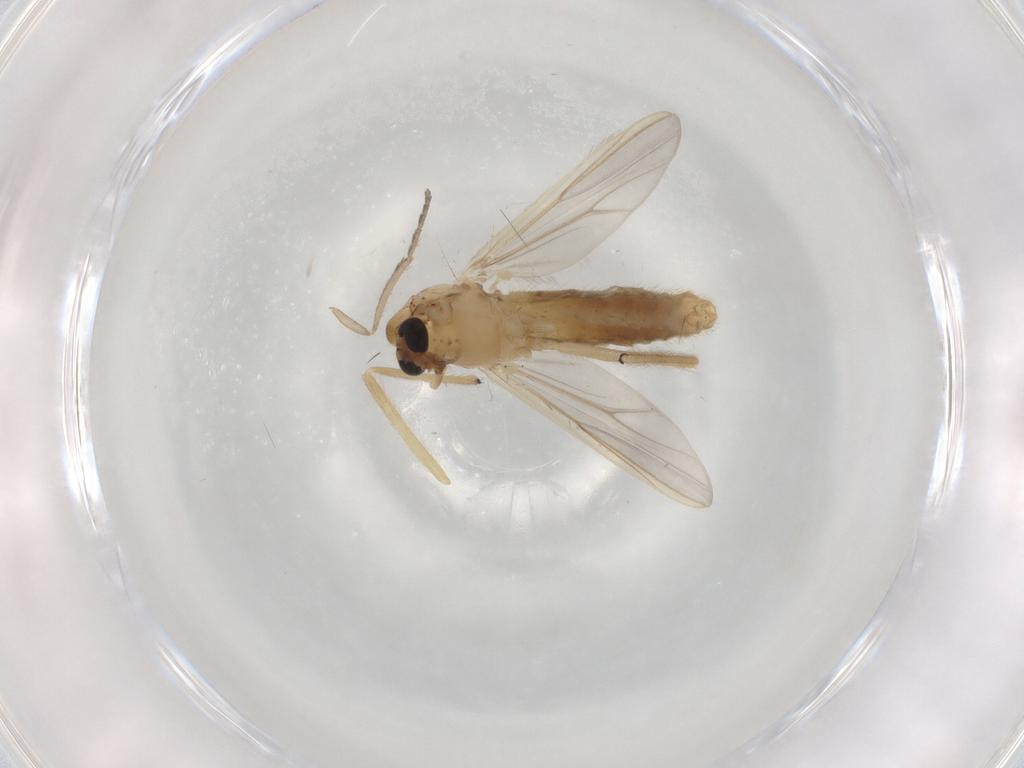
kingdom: Animalia
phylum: Arthropoda
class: Insecta
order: Diptera
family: Chironomidae
